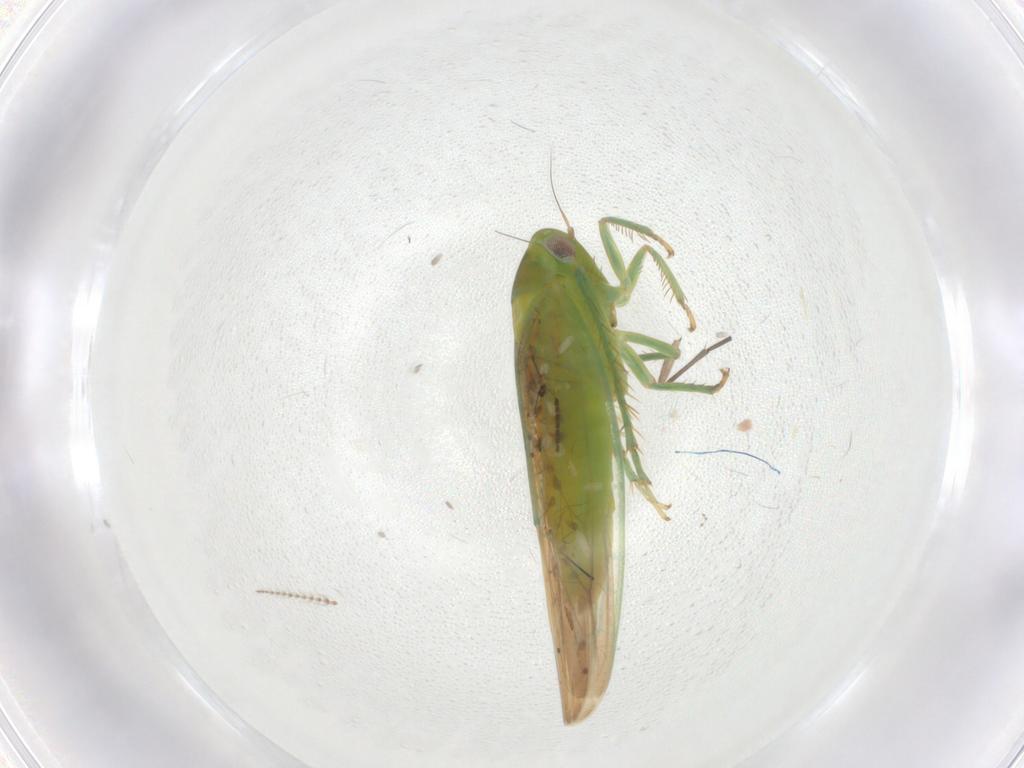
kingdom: Animalia
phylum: Arthropoda
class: Insecta
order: Hemiptera
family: Cicadellidae
